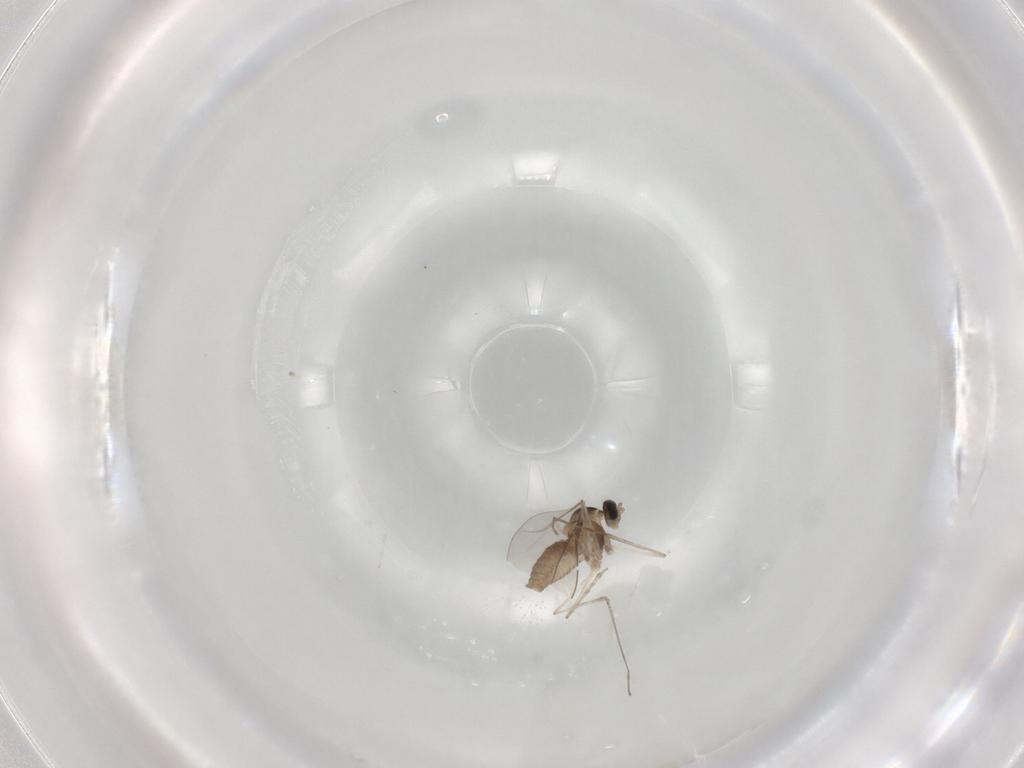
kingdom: Animalia
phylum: Arthropoda
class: Insecta
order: Diptera
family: Cecidomyiidae
